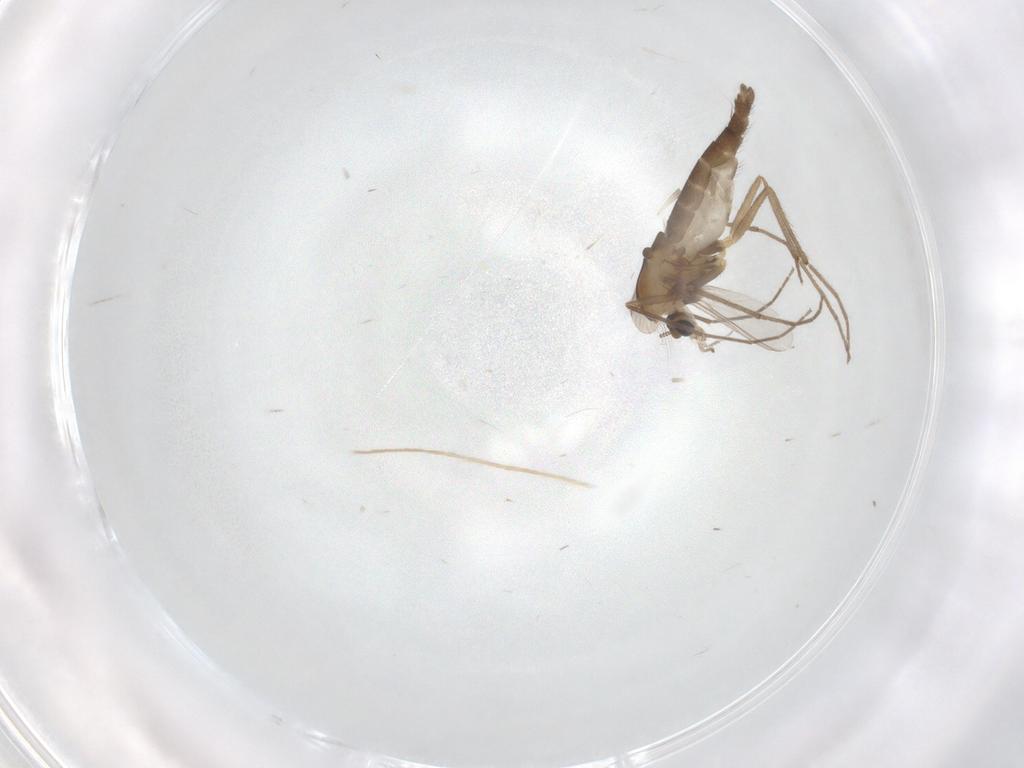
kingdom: Animalia
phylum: Arthropoda
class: Insecta
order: Diptera
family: Chironomidae
